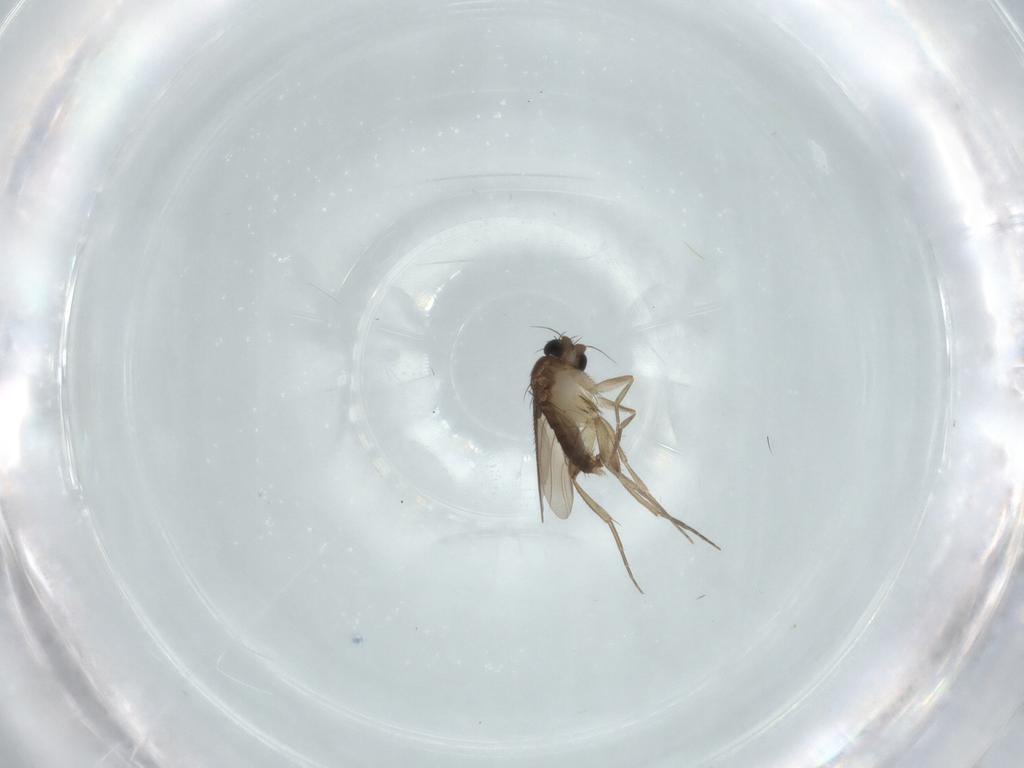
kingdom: Animalia
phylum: Arthropoda
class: Insecta
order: Diptera
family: Phoridae
